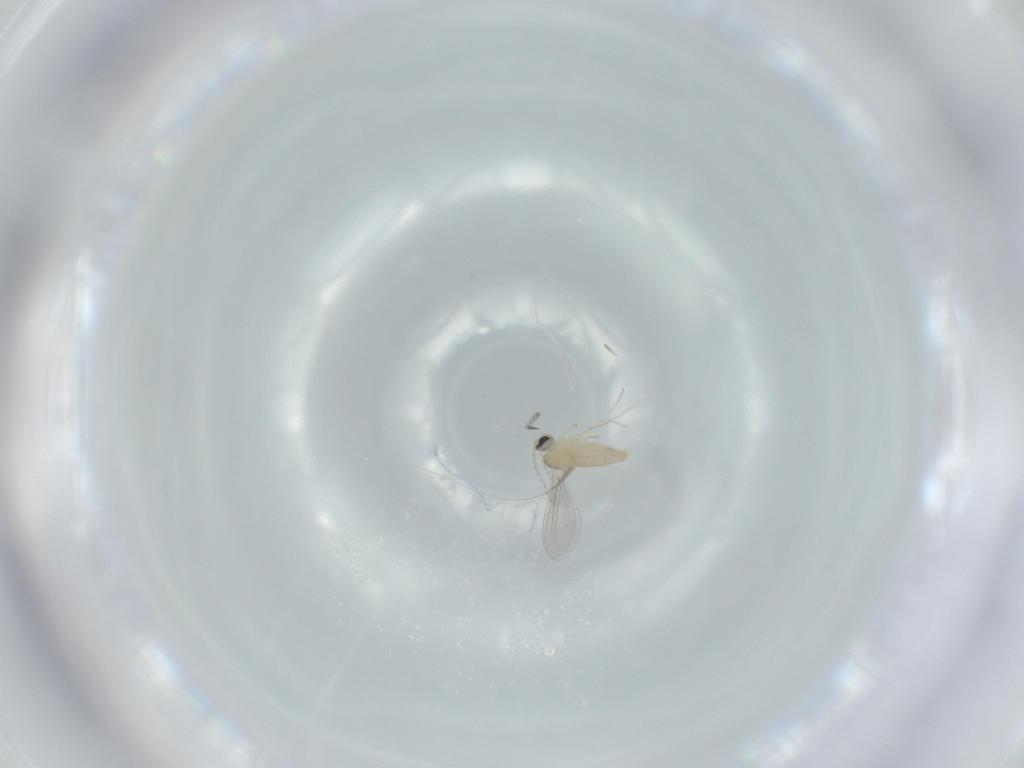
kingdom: Animalia
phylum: Arthropoda
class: Insecta
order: Diptera
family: Cecidomyiidae
